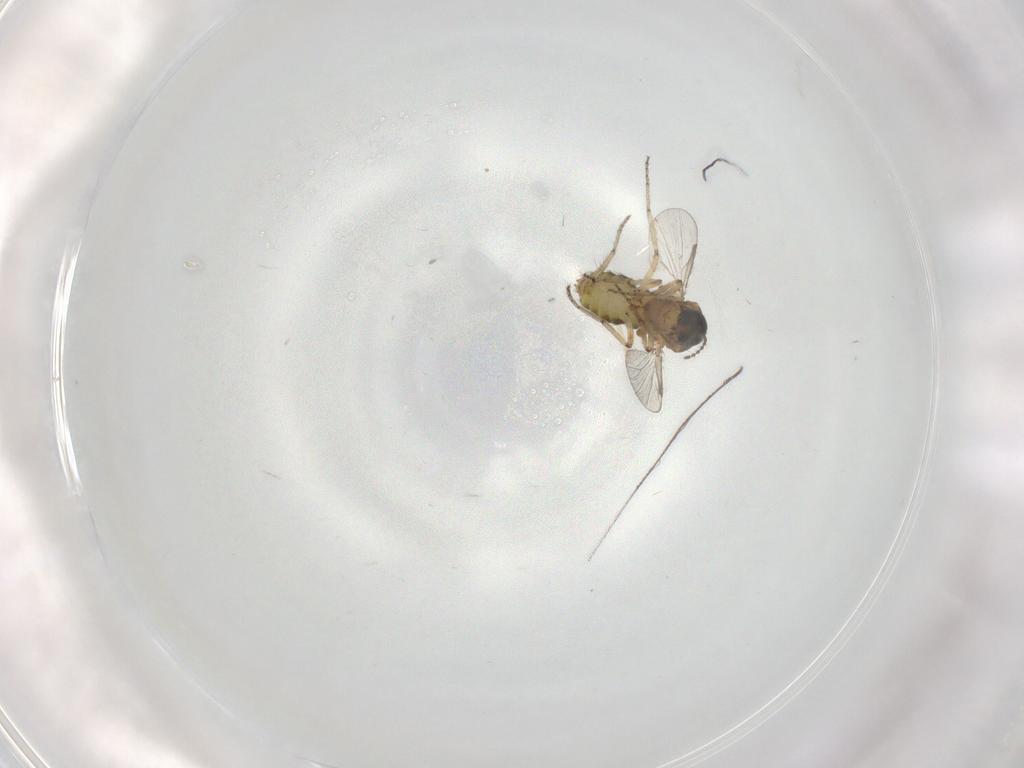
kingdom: Animalia
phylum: Arthropoda
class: Insecta
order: Diptera
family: Ceratopogonidae
